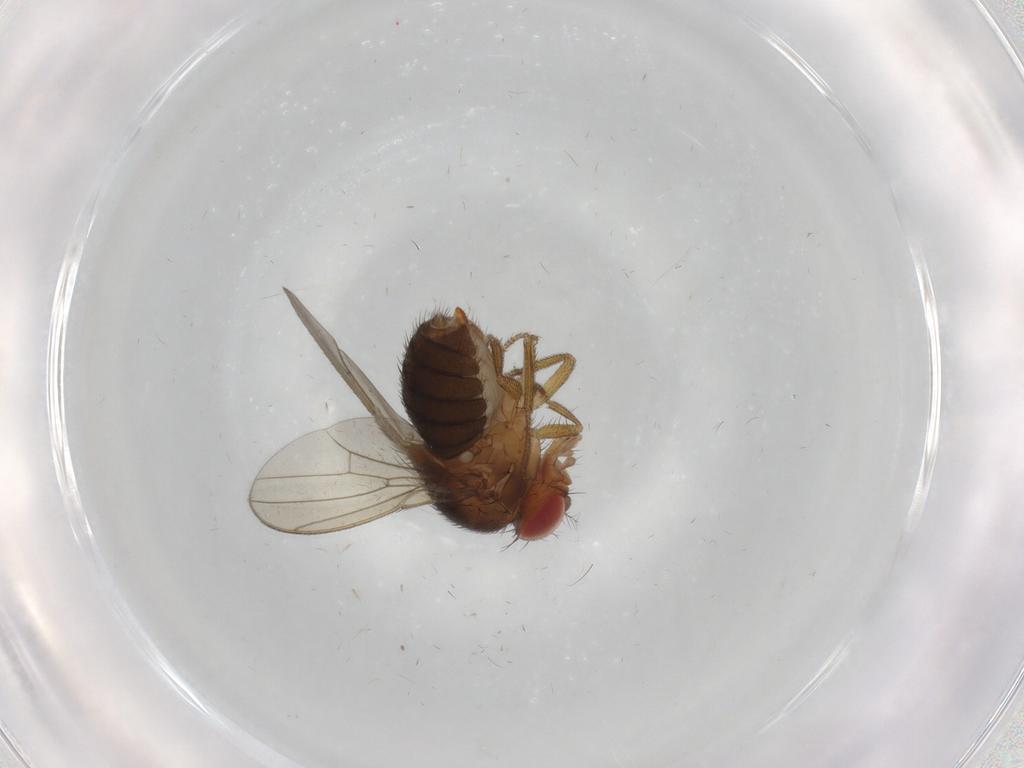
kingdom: Animalia
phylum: Arthropoda
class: Insecta
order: Diptera
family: Drosophilidae
